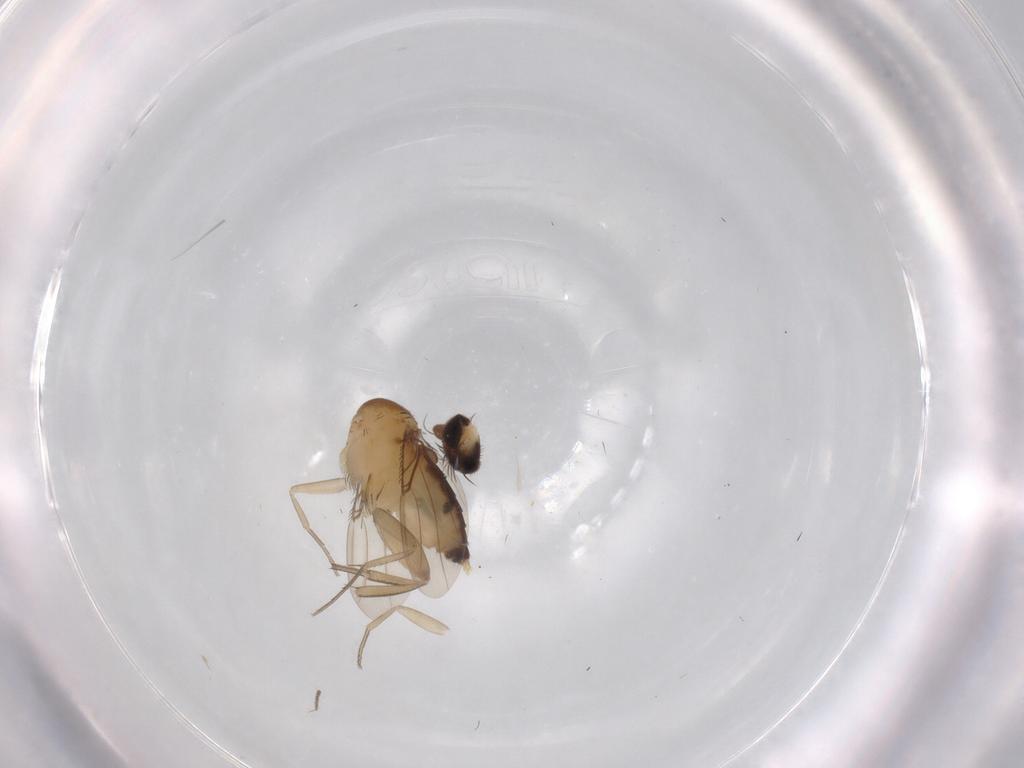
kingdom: Animalia
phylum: Arthropoda
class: Insecta
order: Diptera
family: Phoridae
